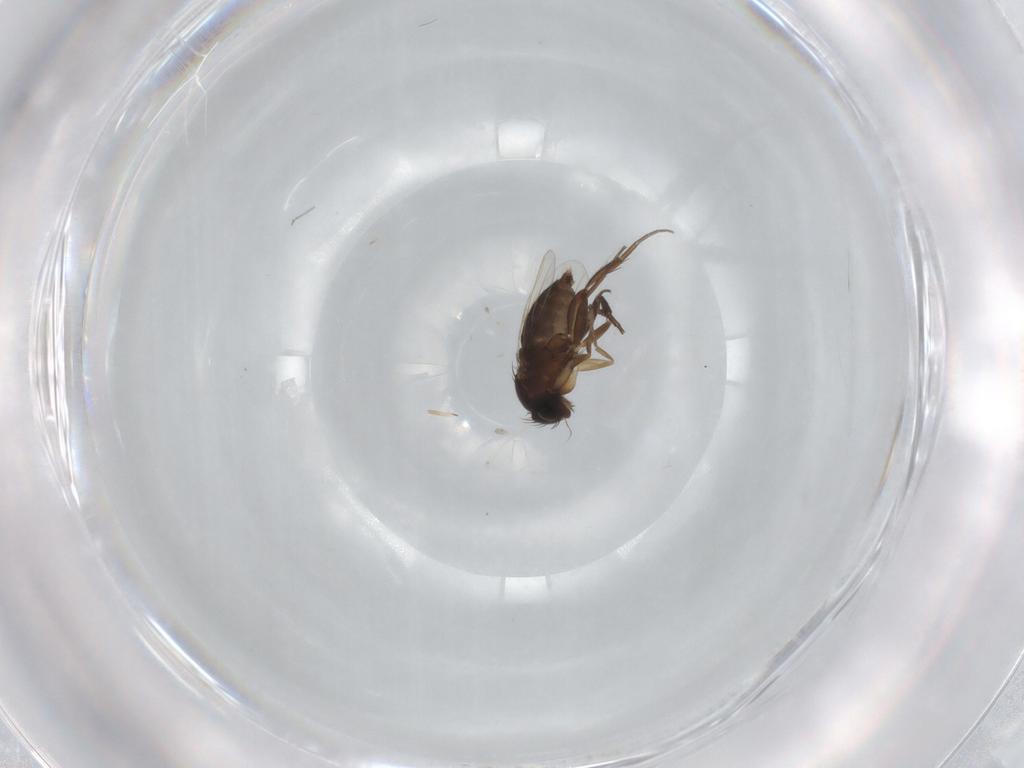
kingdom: Animalia
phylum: Arthropoda
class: Insecta
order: Diptera
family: Phoridae
